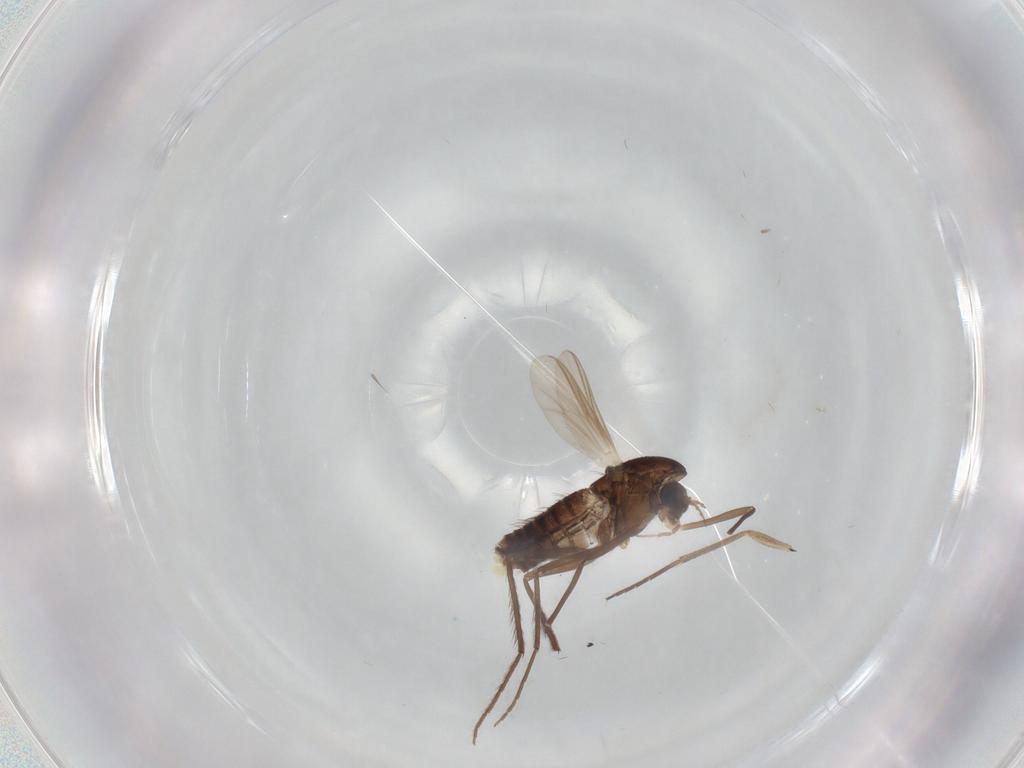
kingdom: Animalia
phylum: Arthropoda
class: Insecta
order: Diptera
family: Chironomidae
